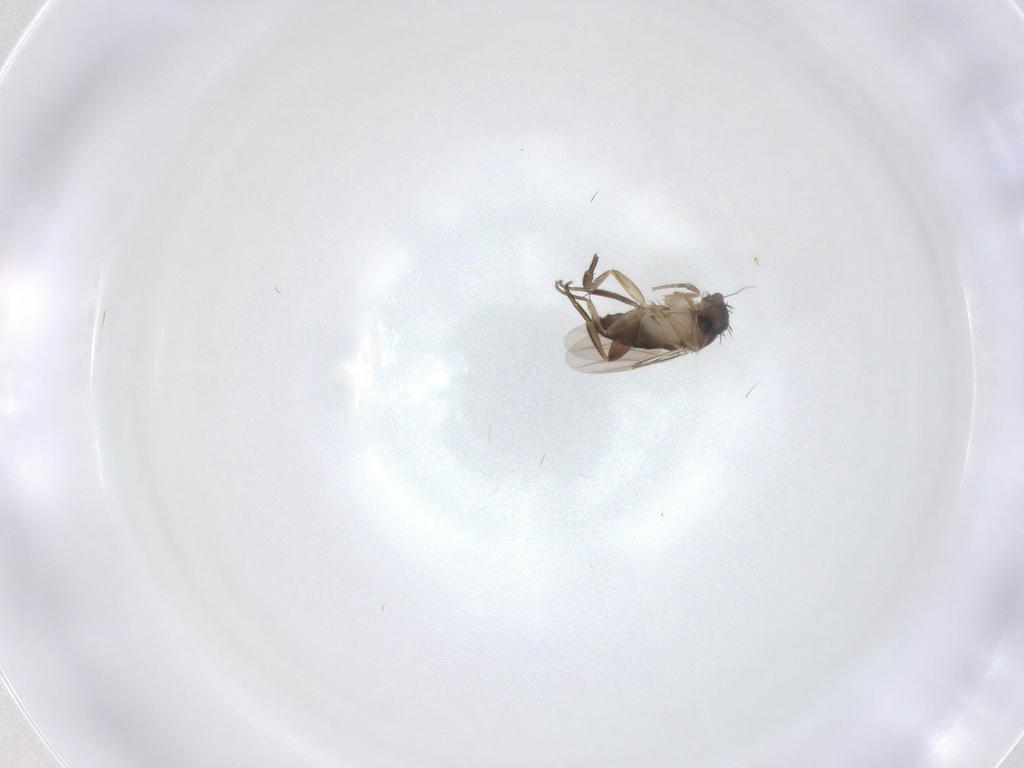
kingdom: Animalia
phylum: Arthropoda
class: Insecta
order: Diptera
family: Phoridae
